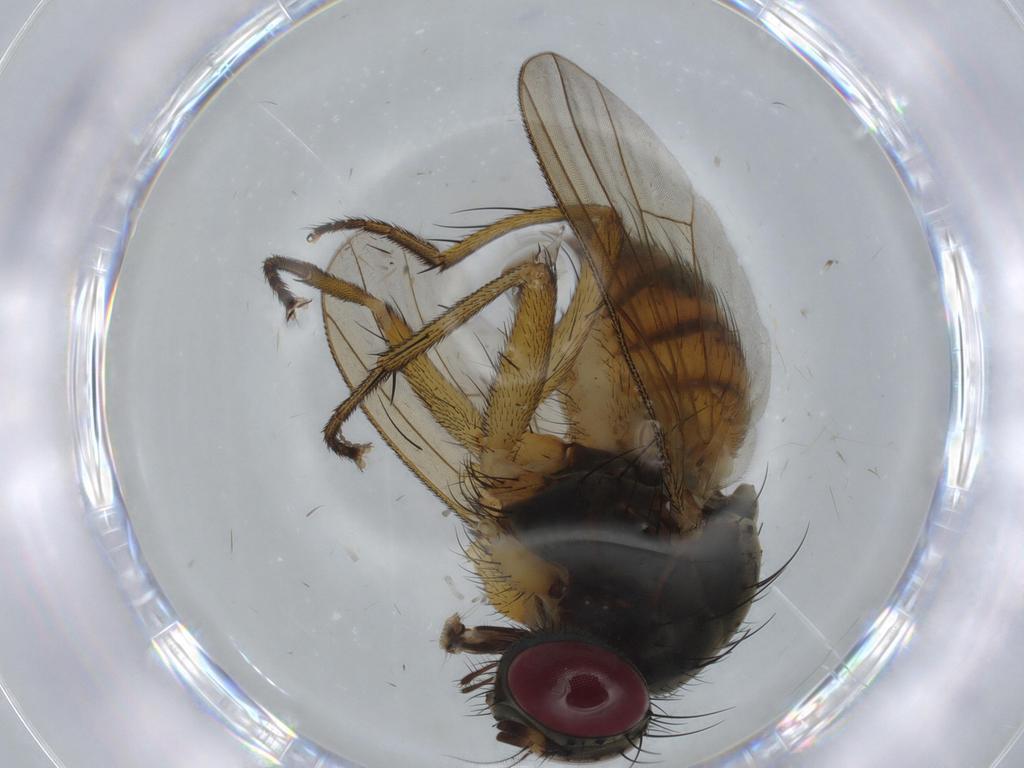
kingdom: Animalia
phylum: Arthropoda
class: Insecta
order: Diptera
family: Muscidae
